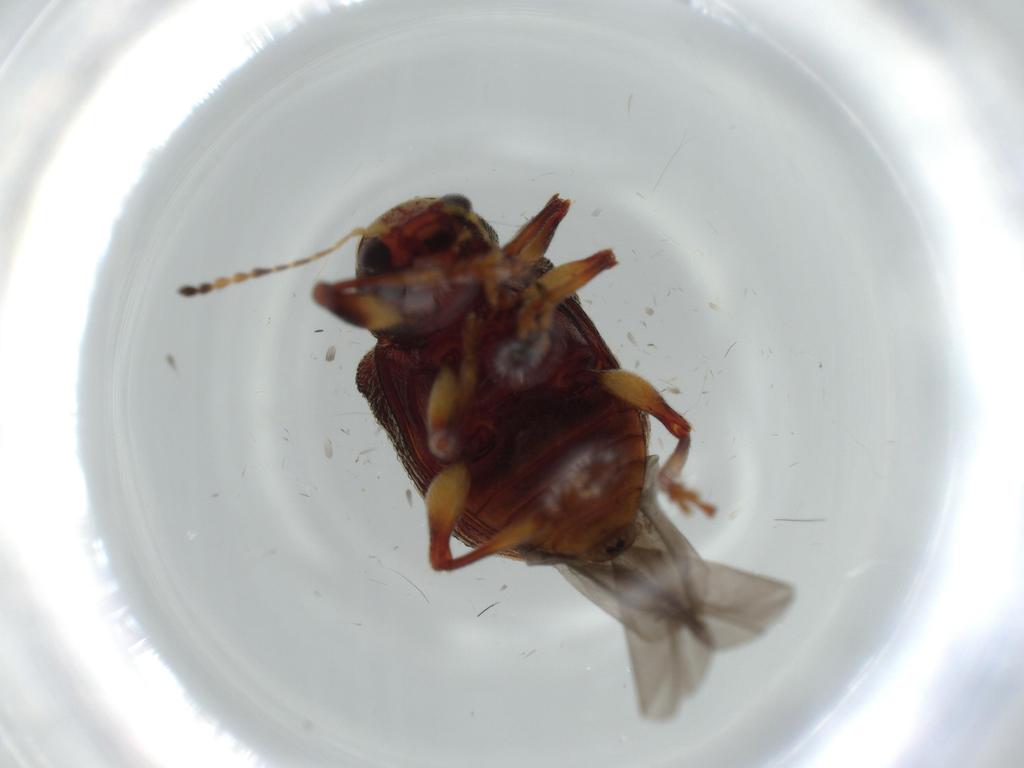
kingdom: Animalia
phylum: Arthropoda
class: Insecta
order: Coleoptera
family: Chrysomelidae
